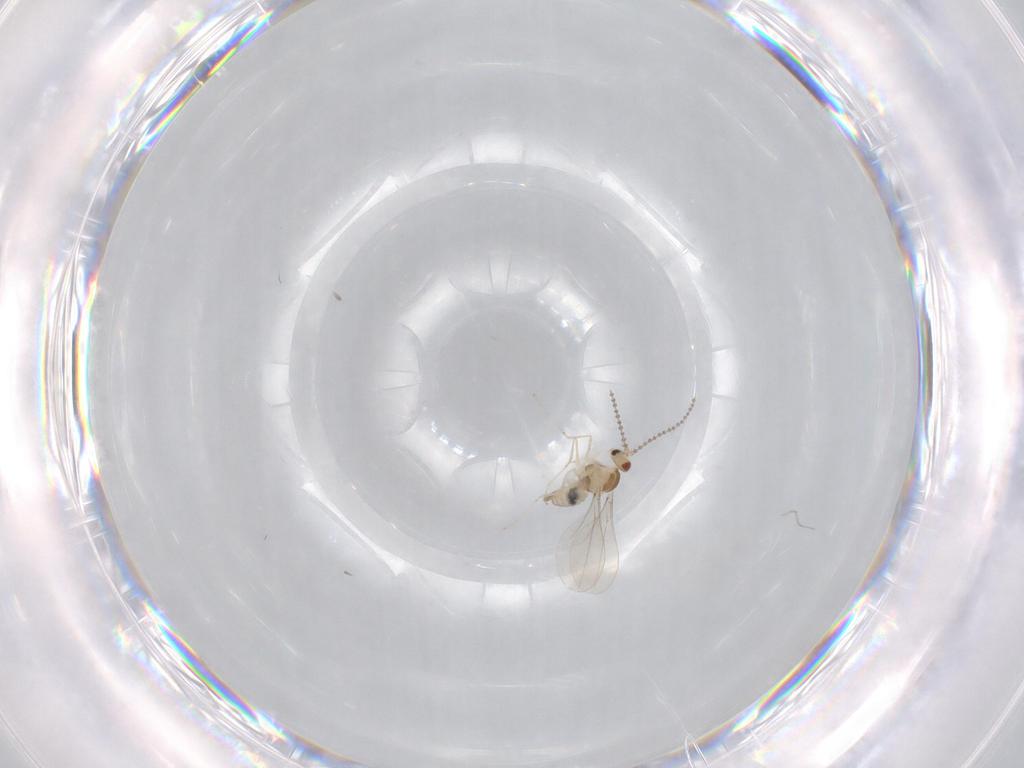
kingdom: Animalia
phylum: Arthropoda
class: Insecta
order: Diptera
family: Cecidomyiidae
